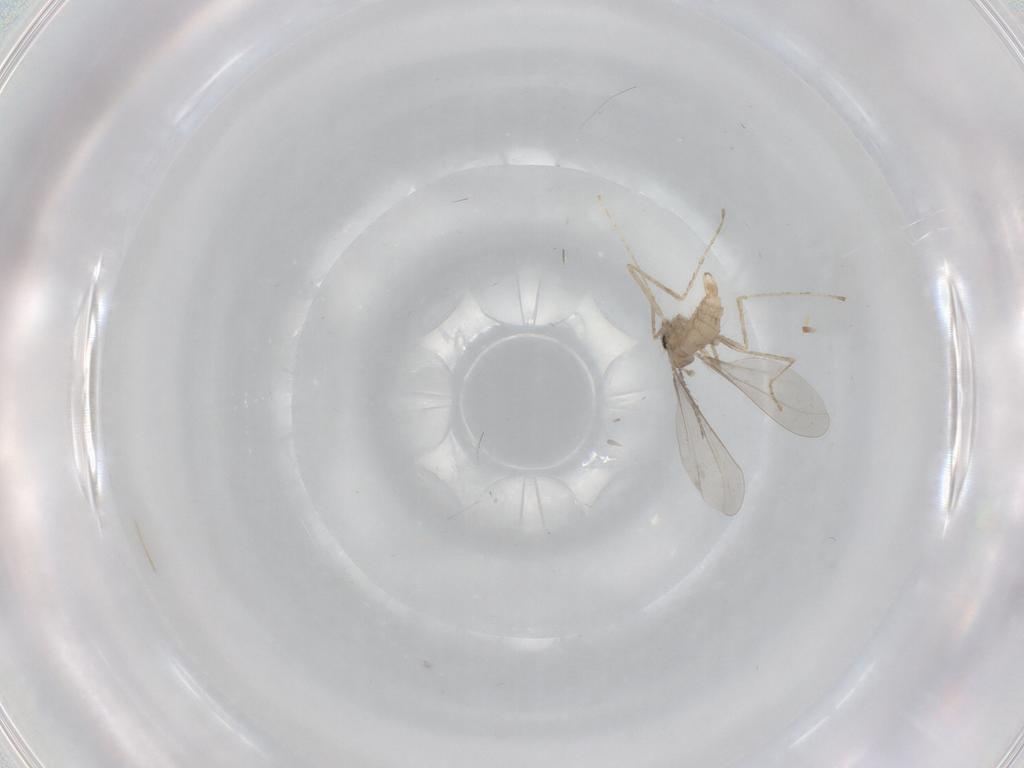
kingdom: Animalia
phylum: Arthropoda
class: Insecta
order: Diptera
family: Cecidomyiidae
